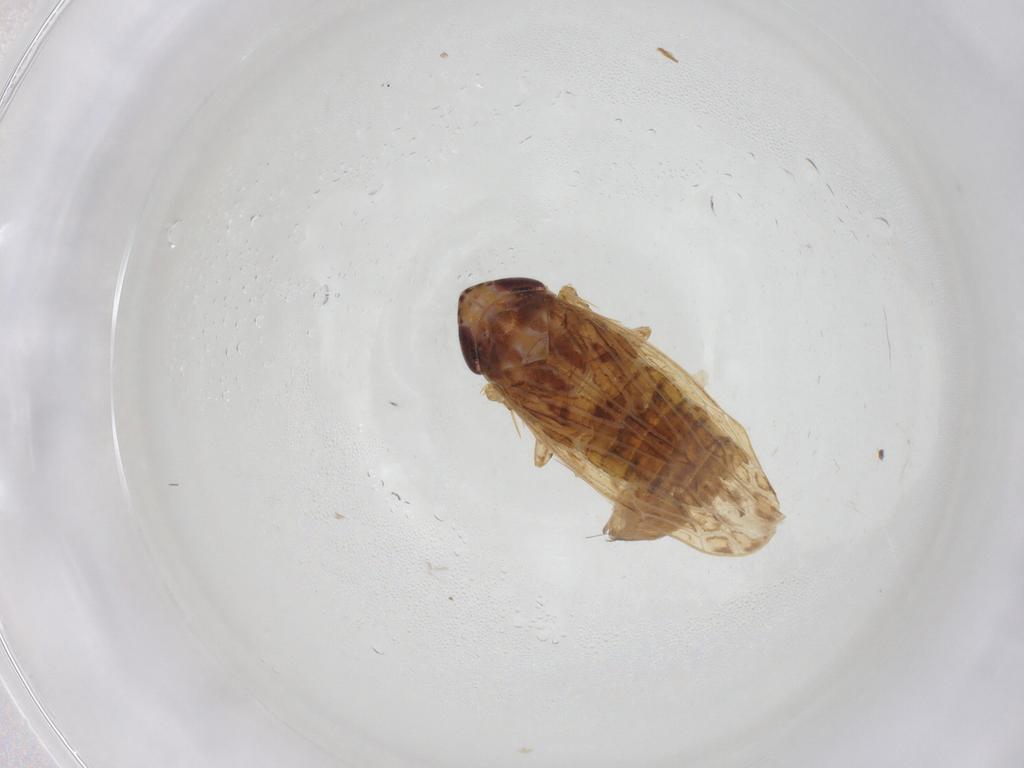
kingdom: Animalia
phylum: Arthropoda
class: Insecta
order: Hemiptera
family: Cicadellidae
